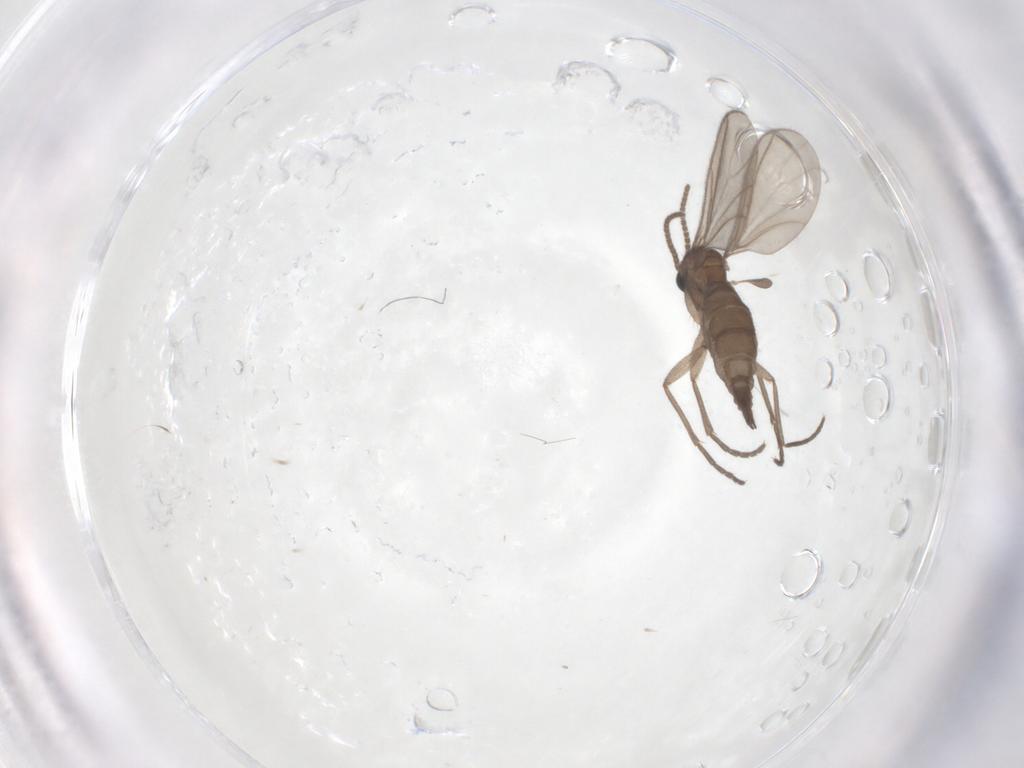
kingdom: Animalia
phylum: Arthropoda
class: Insecta
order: Diptera
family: Sciaridae
